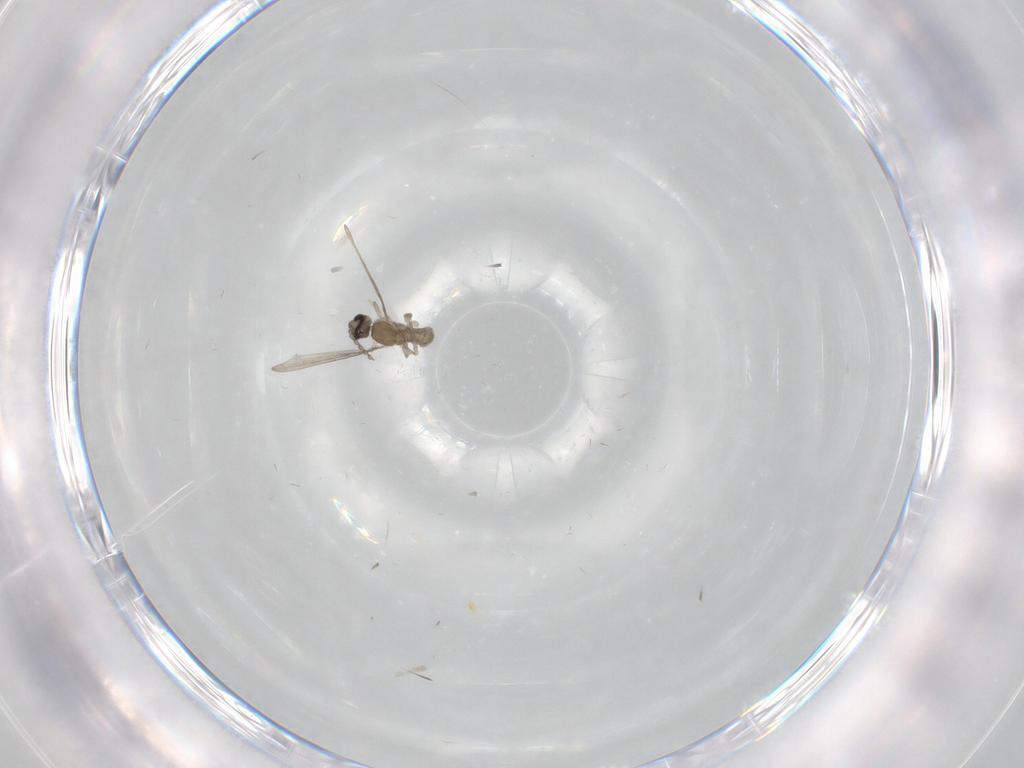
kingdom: Animalia
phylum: Arthropoda
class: Insecta
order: Diptera
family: Cecidomyiidae
